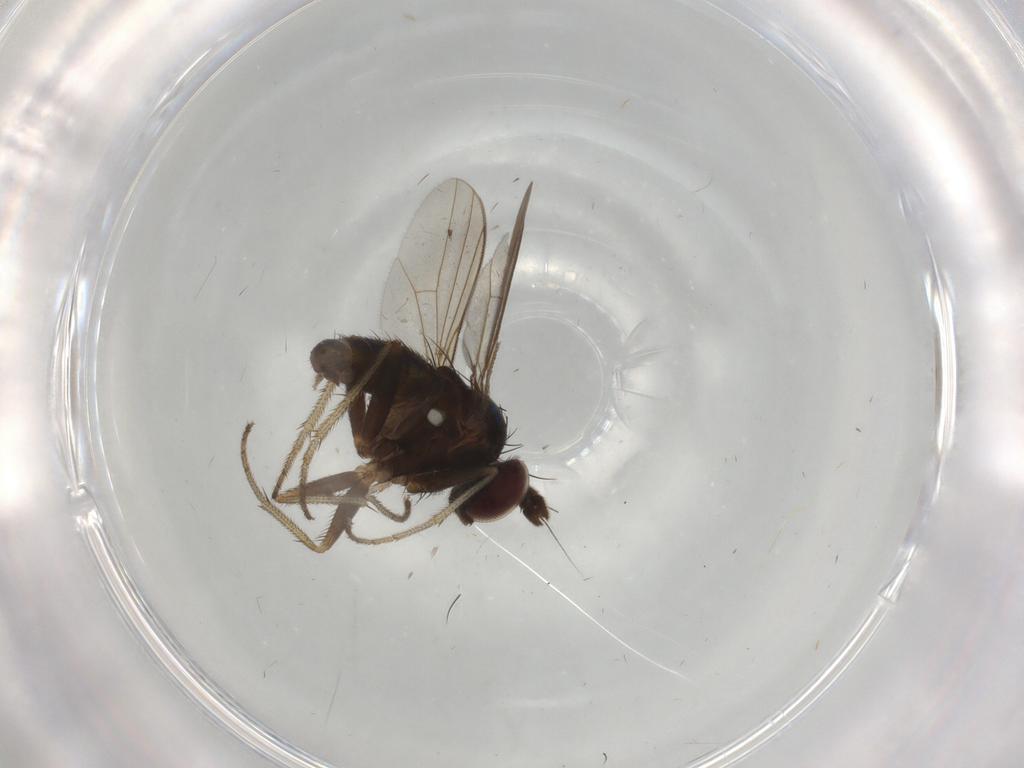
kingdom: Animalia
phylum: Arthropoda
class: Insecta
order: Diptera
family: Dolichopodidae
